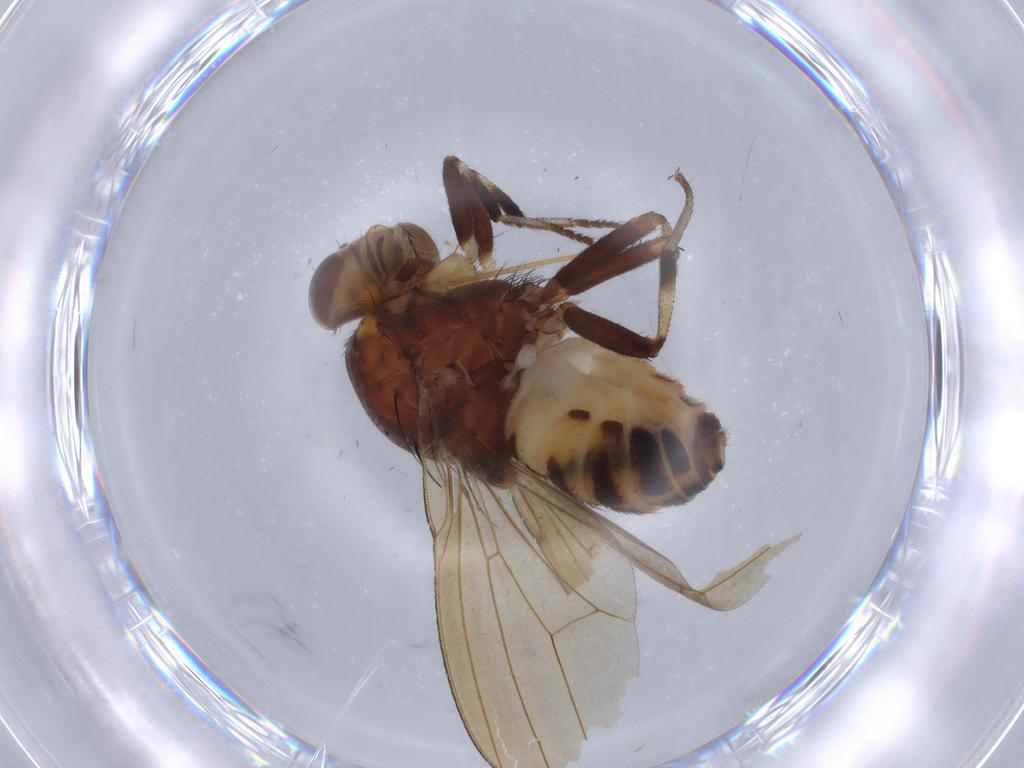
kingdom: Animalia
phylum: Arthropoda
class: Insecta
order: Diptera
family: Lauxaniidae
